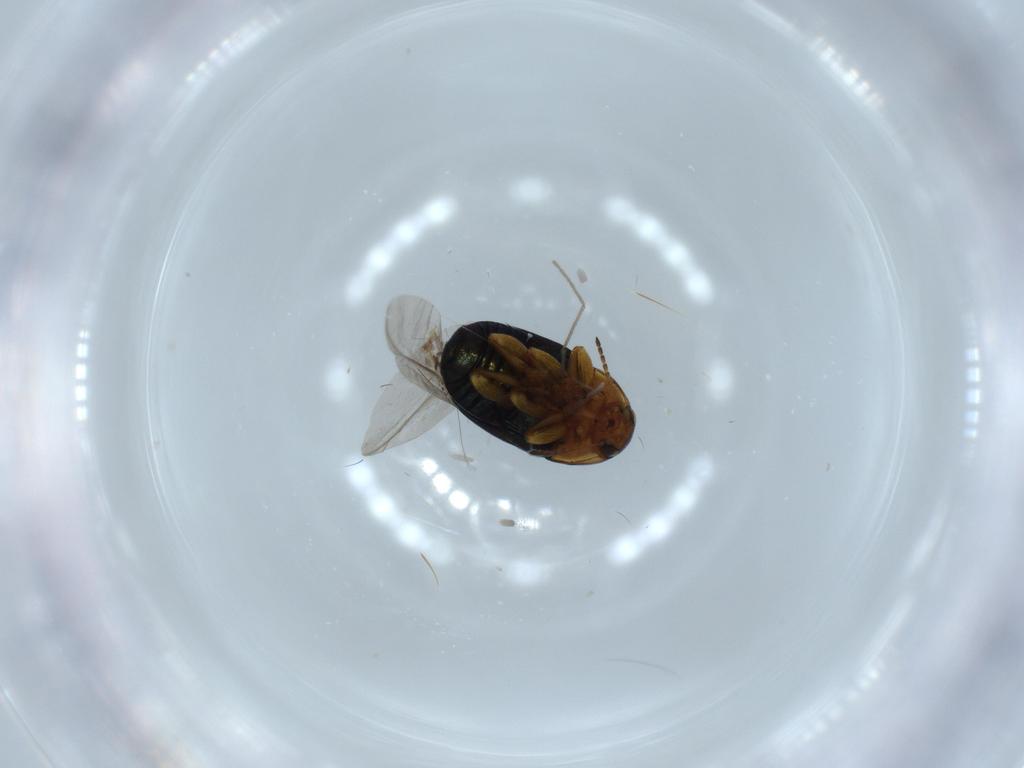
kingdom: Animalia
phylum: Arthropoda
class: Insecta
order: Coleoptera
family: Chrysomelidae
